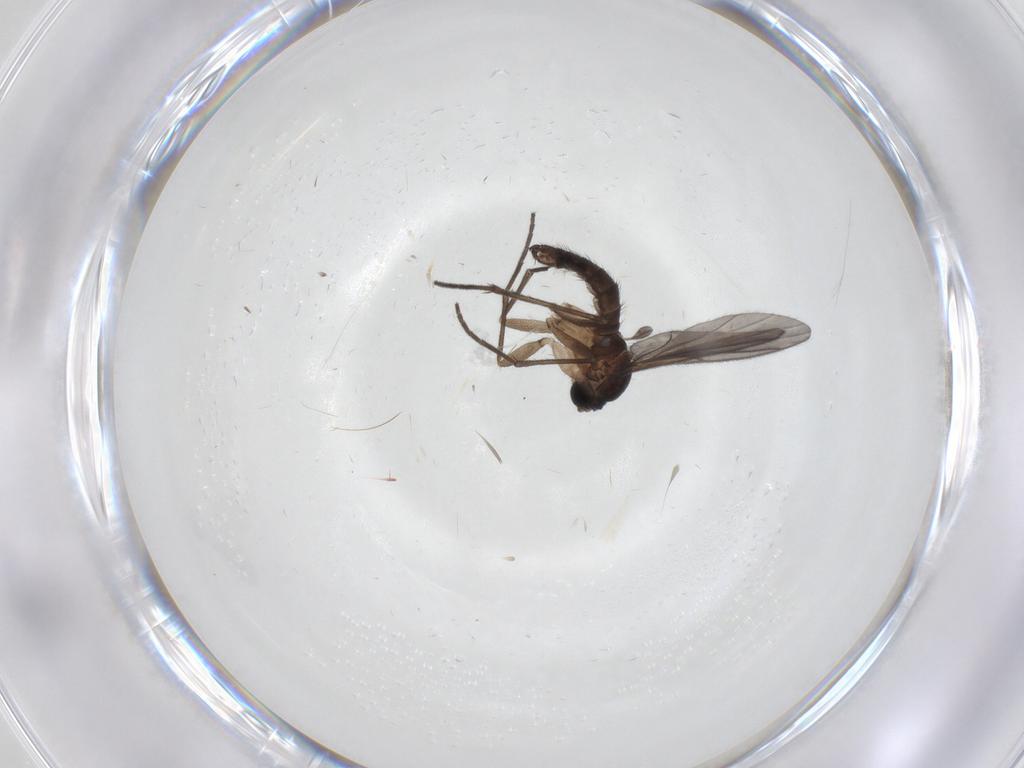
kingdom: Animalia
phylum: Arthropoda
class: Insecta
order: Diptera
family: Sciaridae
